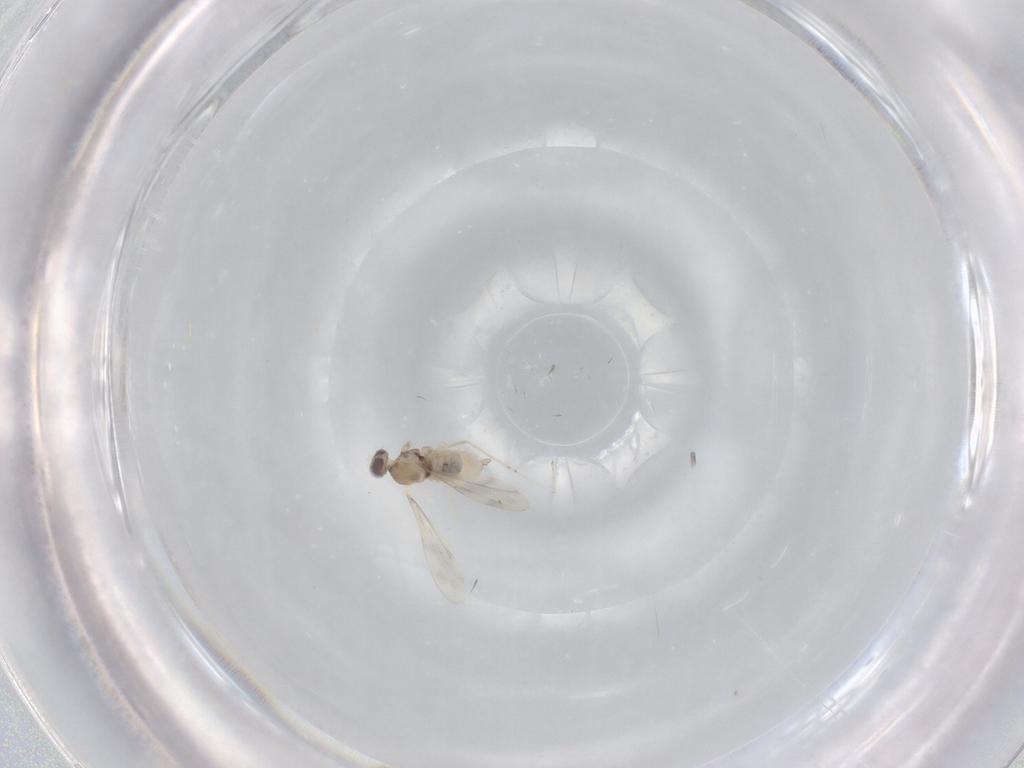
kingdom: Animalia
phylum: Arthropoda
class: Insecta
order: Diptera
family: Cecidomyiidae
